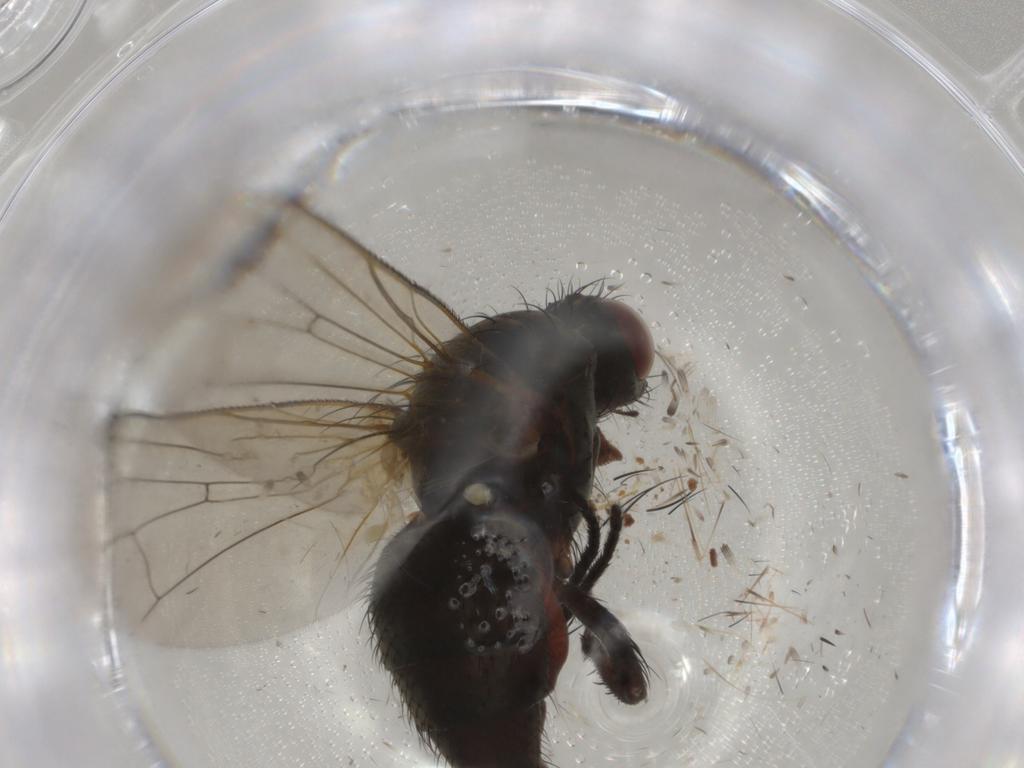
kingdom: Animalia
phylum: Arthropoda
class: Insecta
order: Diptera
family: Anthomyiidae
